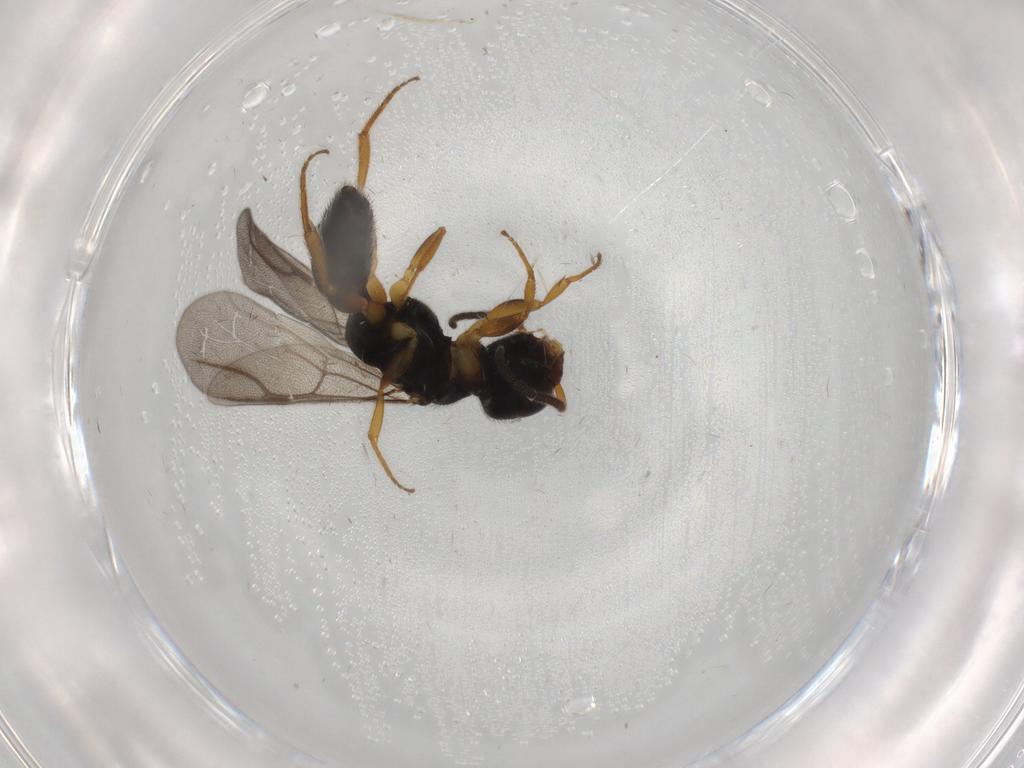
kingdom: Animalia
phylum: Arthropoda
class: Insecta
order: Hymenoptera
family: Bethylidae
